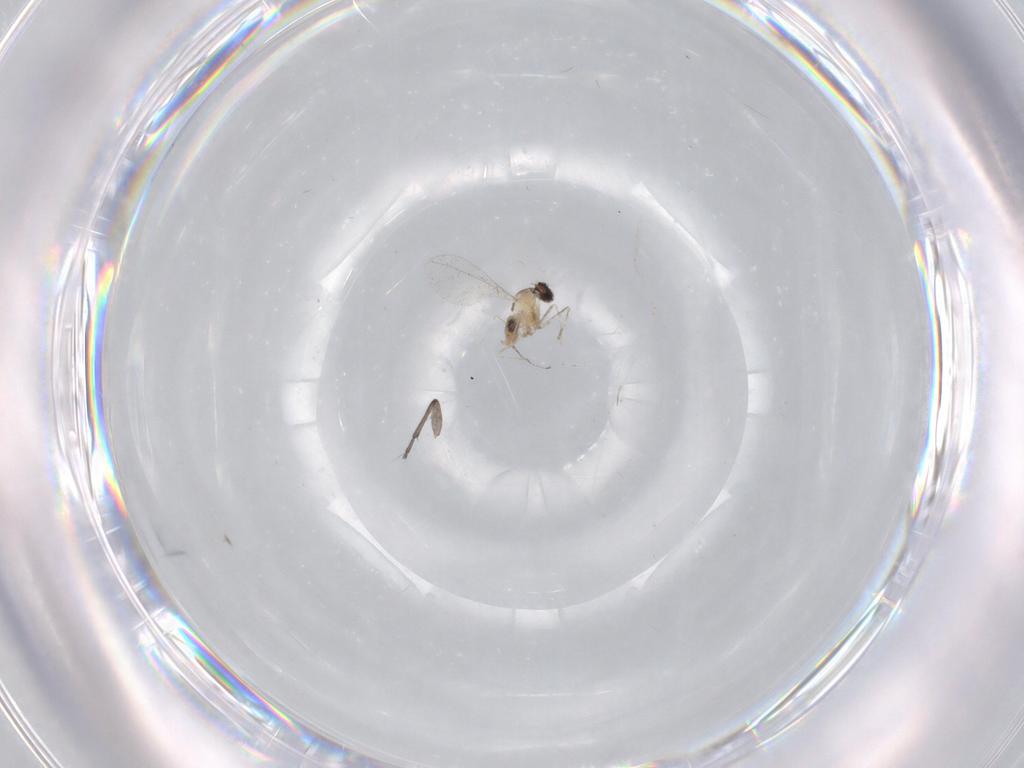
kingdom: Animalia
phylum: Arthropoda
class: Insecta
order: Diptera
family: Cecidomyiidae
